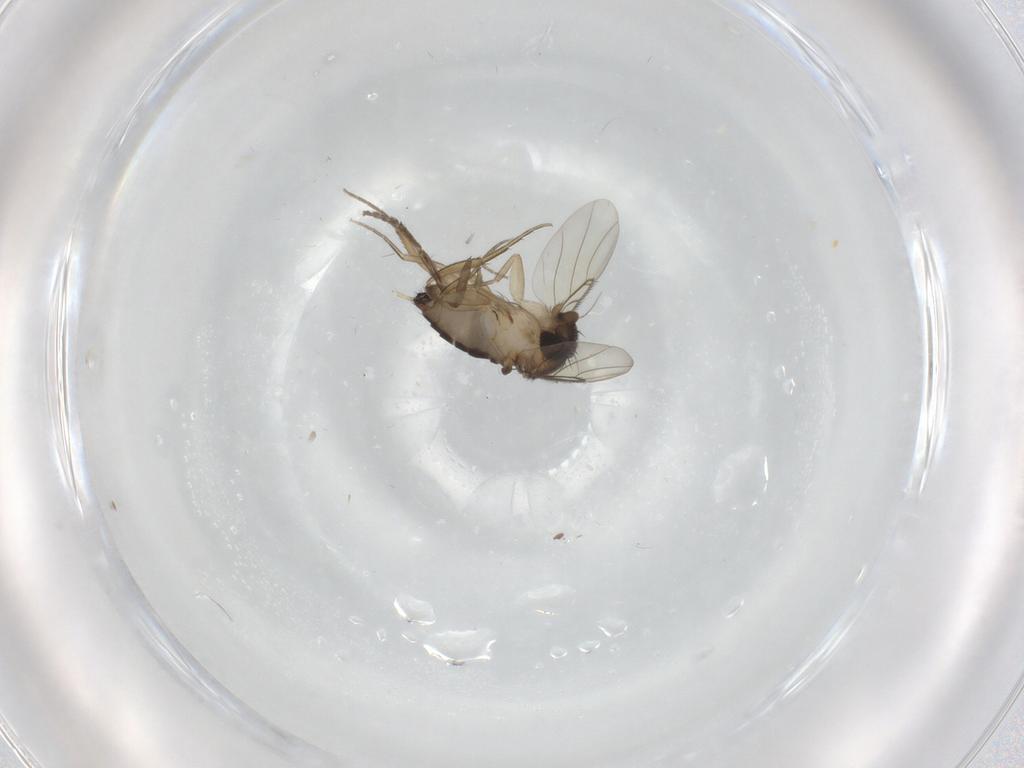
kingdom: Animalia
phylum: Arthropoda
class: Insecta
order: Diptera
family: Phoridae
